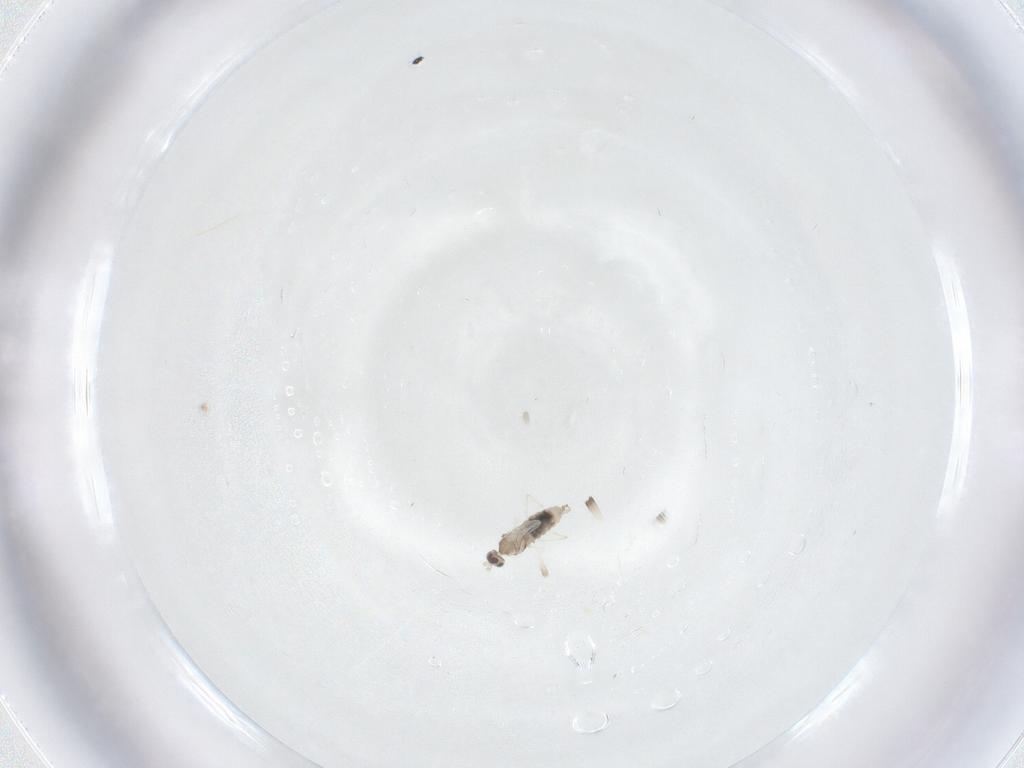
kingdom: Animalia
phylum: Arthropoda
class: Insecta
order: Diptera
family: Cecidomyiidae
